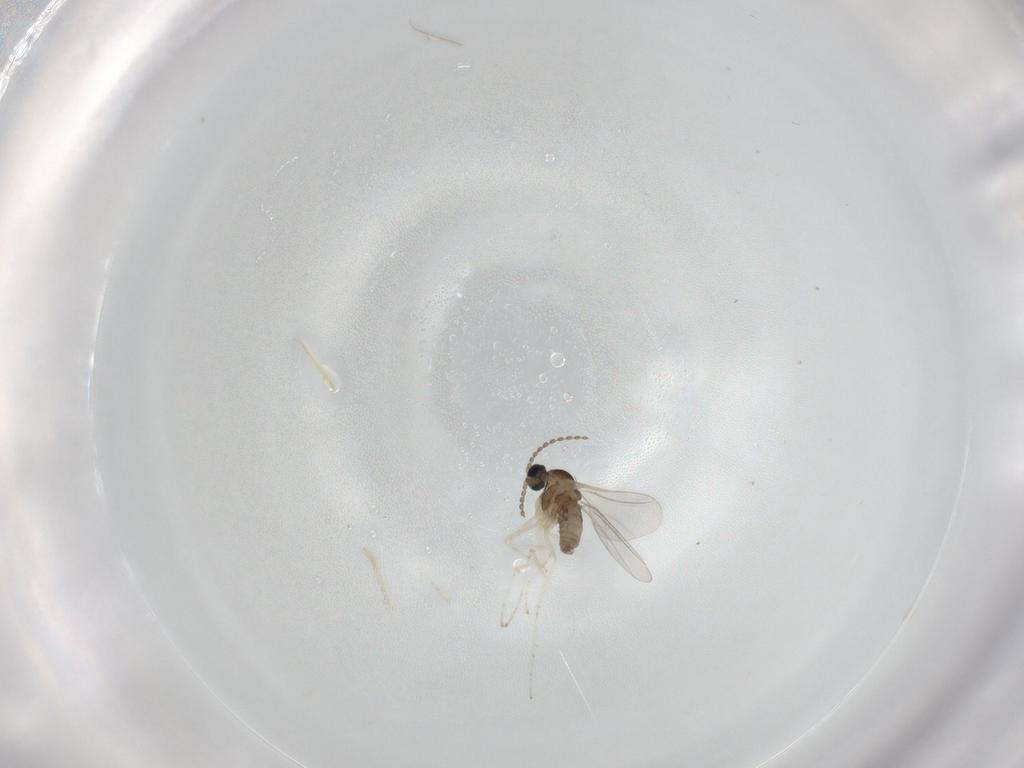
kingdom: Animalia
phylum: Arthropoda
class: Insecta
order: Diptera
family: Cecidomyiidae
